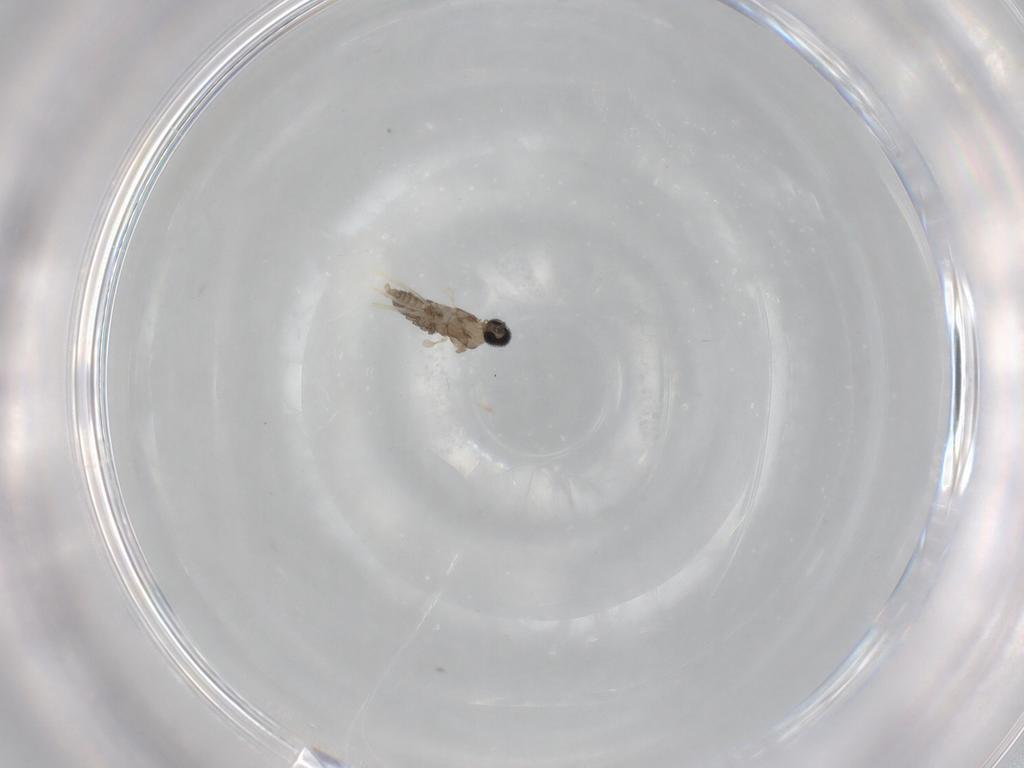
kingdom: Animalia
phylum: Arthropoda
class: Insecta
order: Diptera
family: Cecidomyiidae
